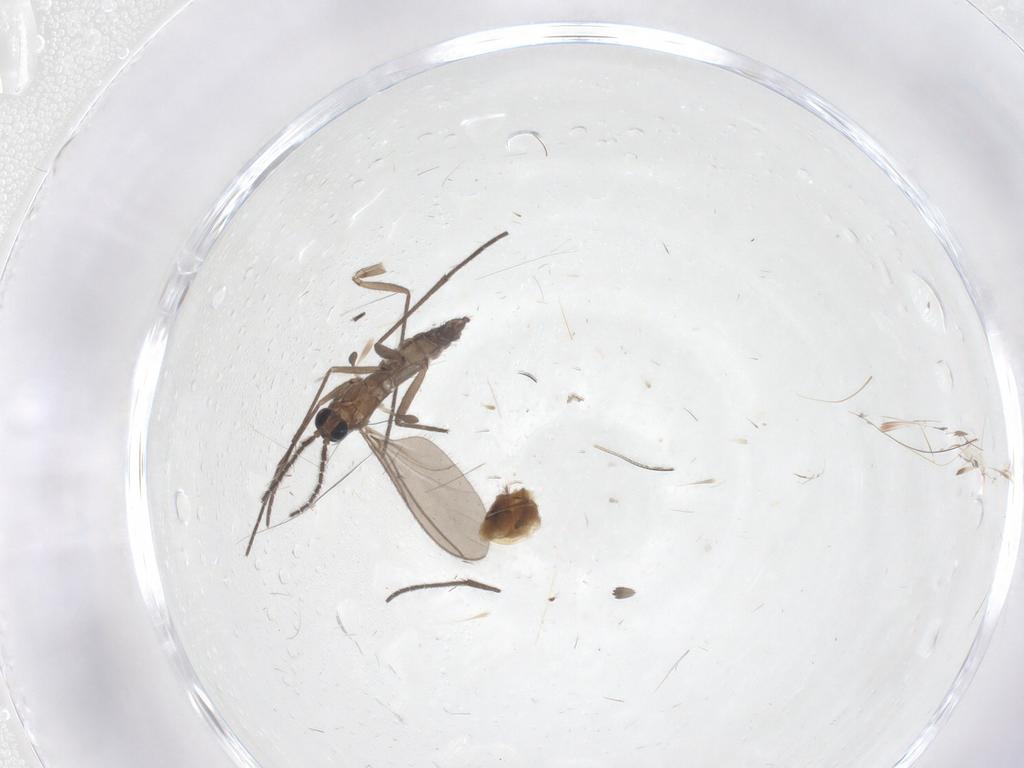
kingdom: Animalia
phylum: Arthropoda
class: Insecta
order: Diptera
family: Sciaridae
